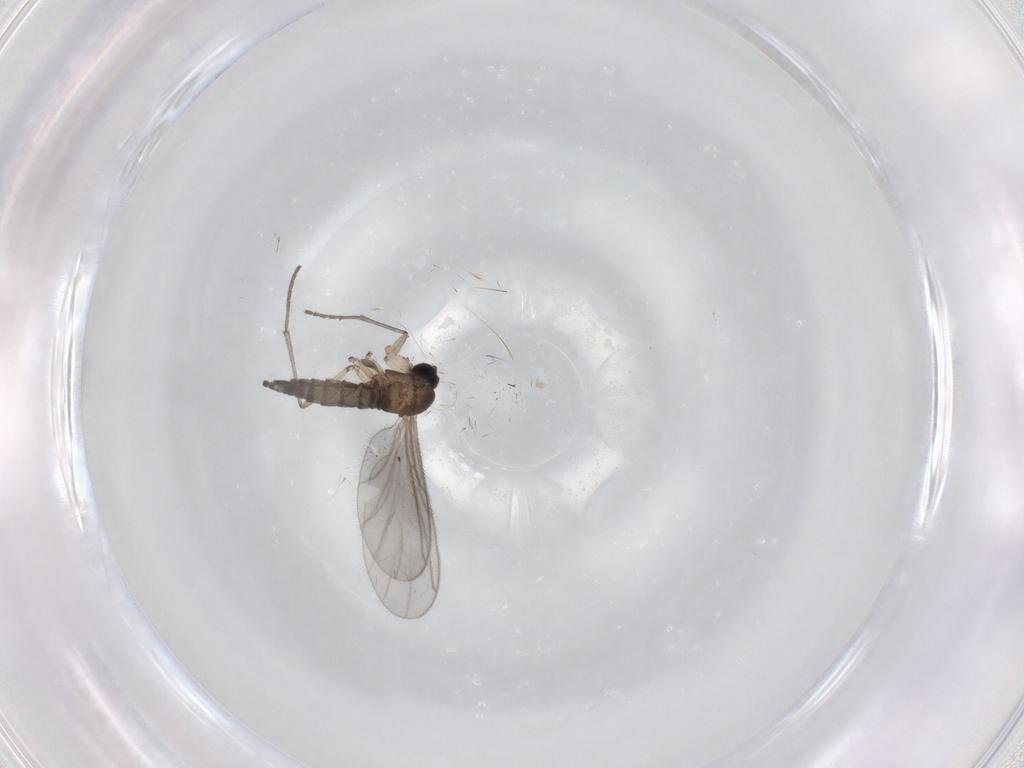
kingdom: Animalia
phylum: Arthropoda
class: Insecta
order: Diptera
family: Sciaridae
